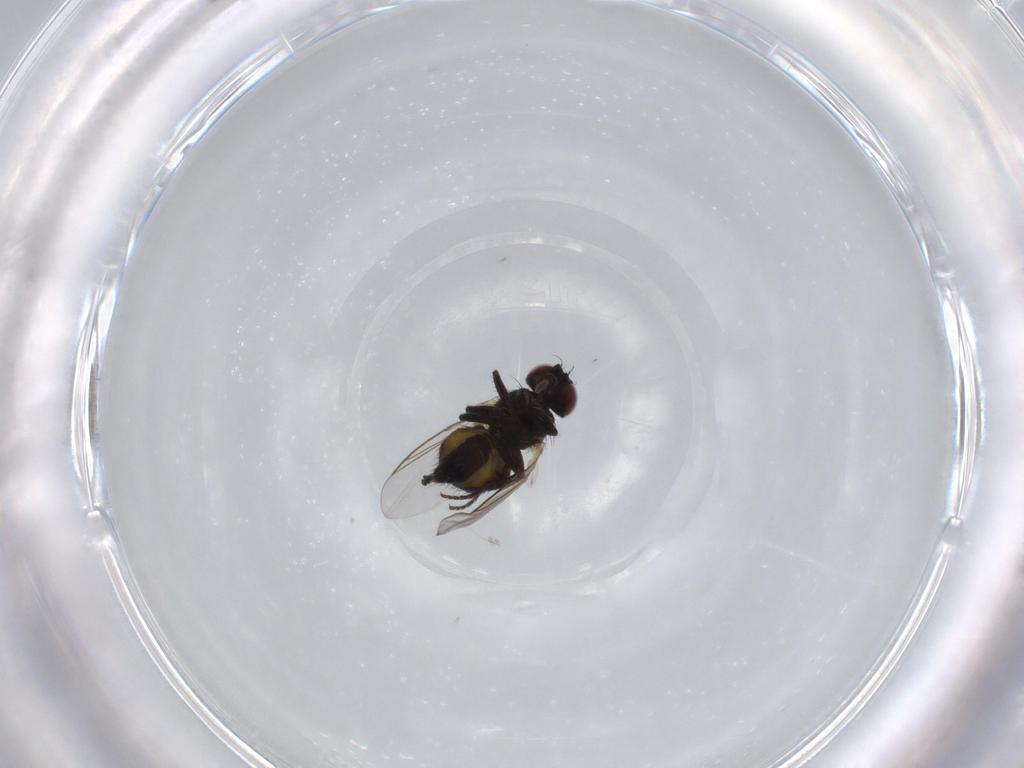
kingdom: Animalia
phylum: Arthropoda
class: Insecta
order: Diptera
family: Agromyzidae
